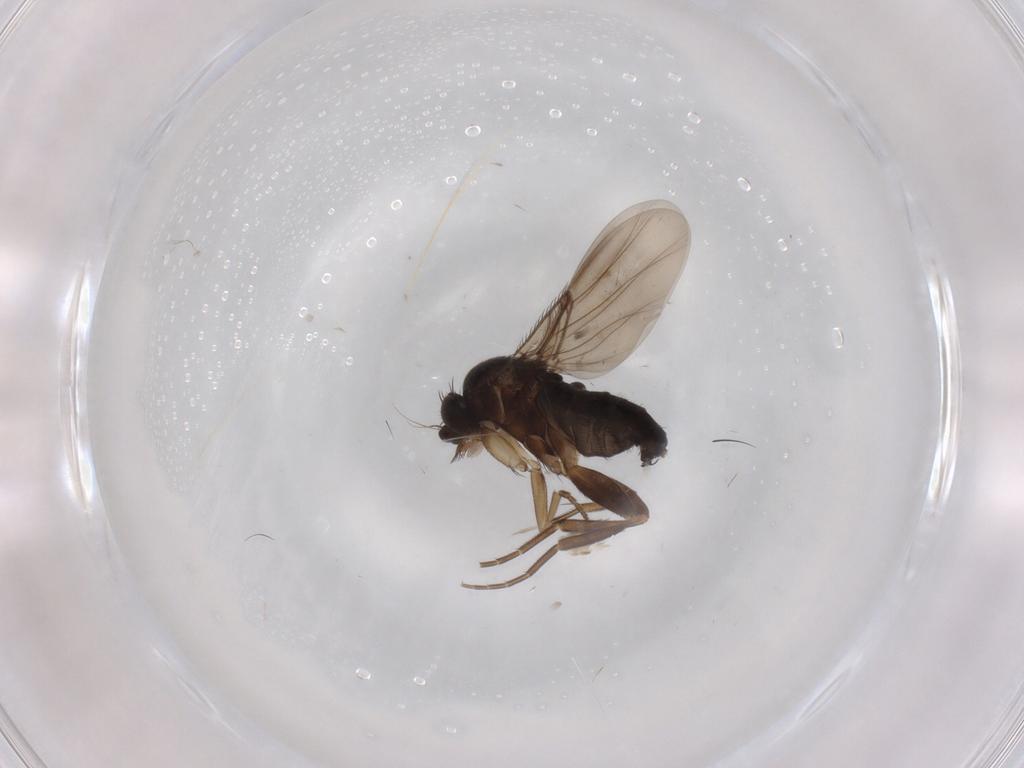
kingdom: Animalia
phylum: Arthropoda
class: Insecta
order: Diptera
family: Phoridae
